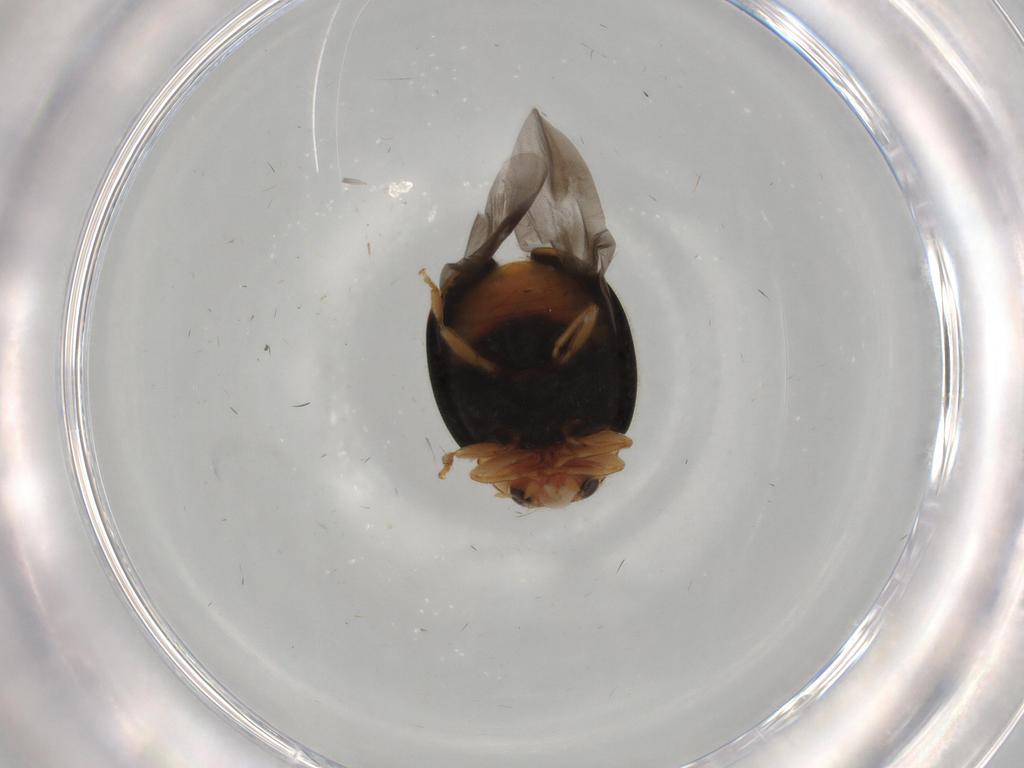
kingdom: Animalia
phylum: Arthropoda
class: Insecta
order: Coleoptera
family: Coccinellidae
